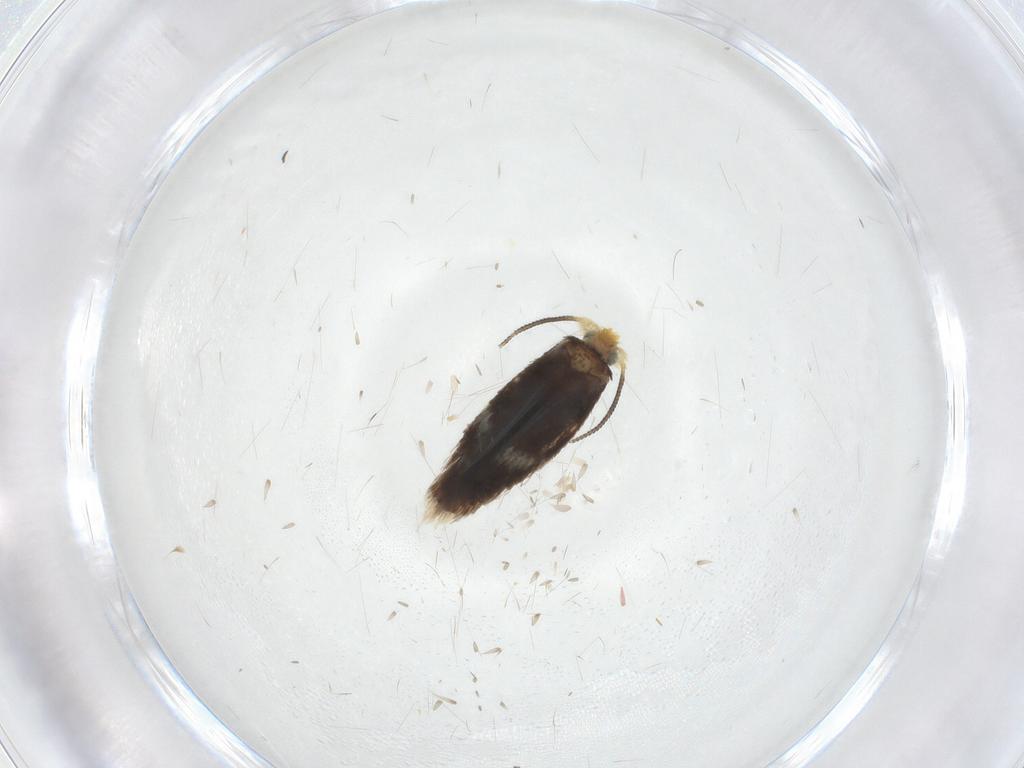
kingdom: Animalia
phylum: Arthropoda
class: Insecta
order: Lepidoptera
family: Nepticulidae
